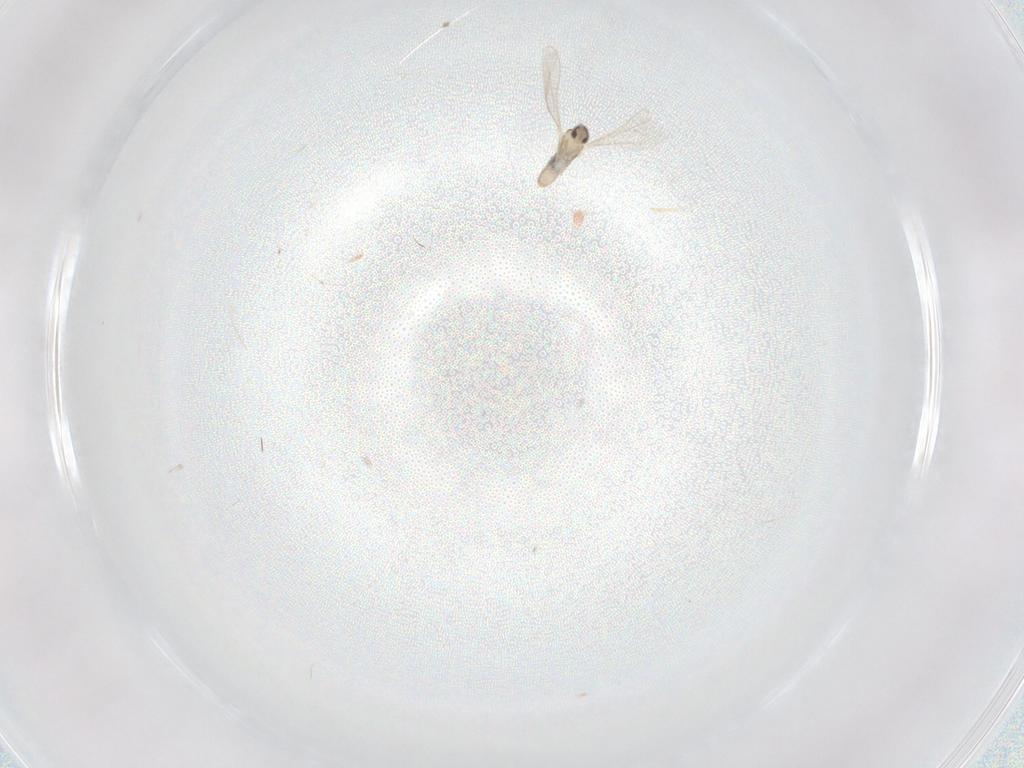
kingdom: Animalia
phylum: Arthropoda
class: Insecta
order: Diptera
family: Cecidomyiidae
